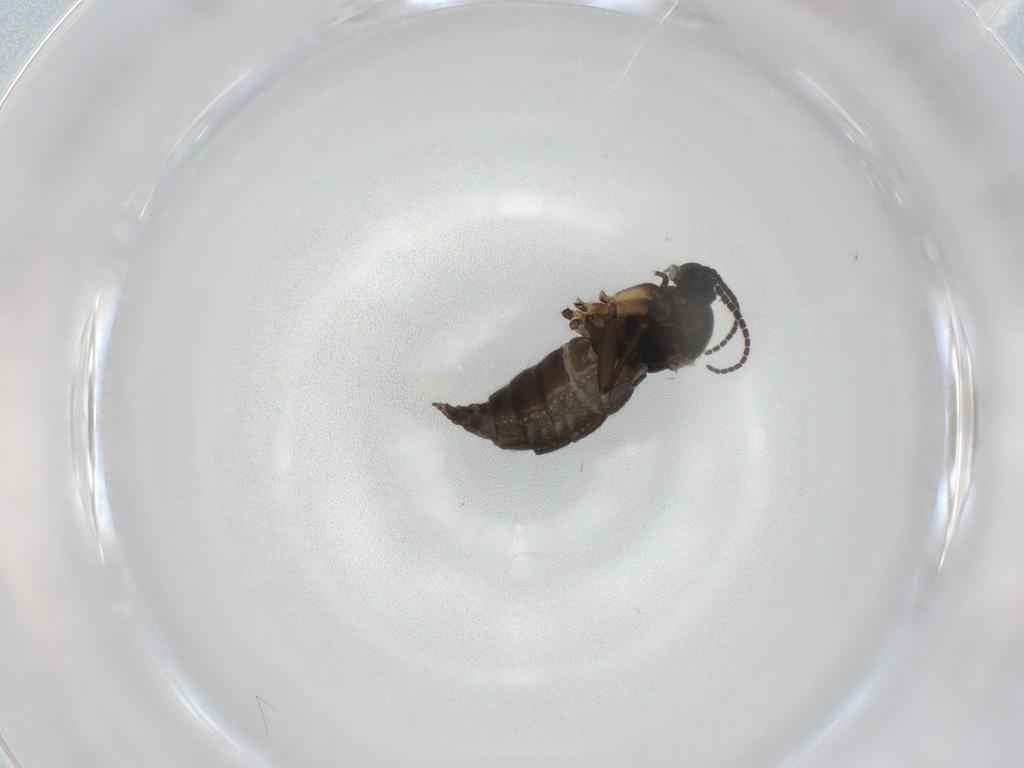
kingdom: Animalia
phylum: Arthropoda
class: Insecta
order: Diptera
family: Sciaridae
